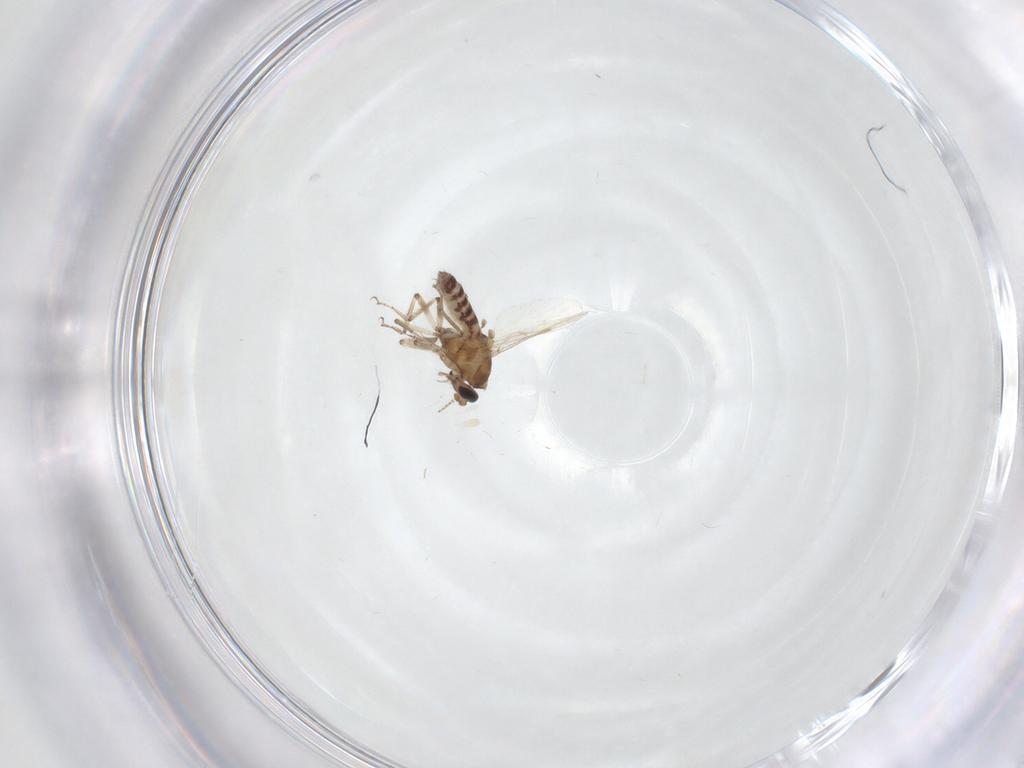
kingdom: Animalia
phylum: Arthropoda
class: Insecta
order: Diptera
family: Ceratopogonidae
